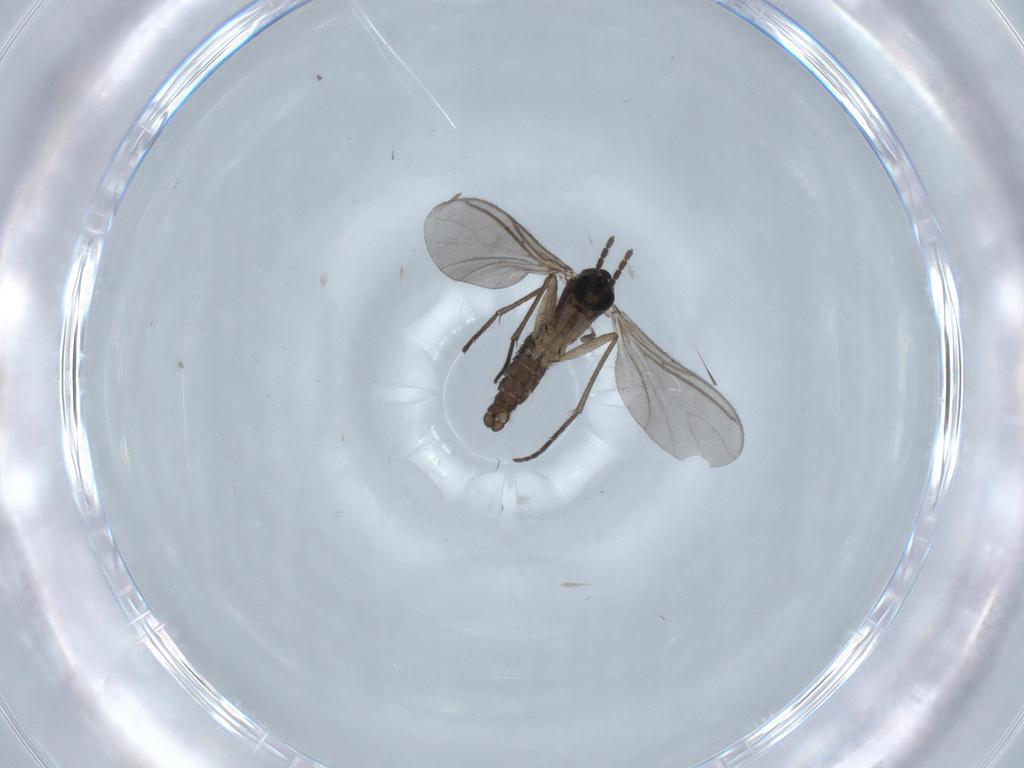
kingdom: Animalia
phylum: Arthropoda
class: Insecta
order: Diptera
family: Sciaridae
